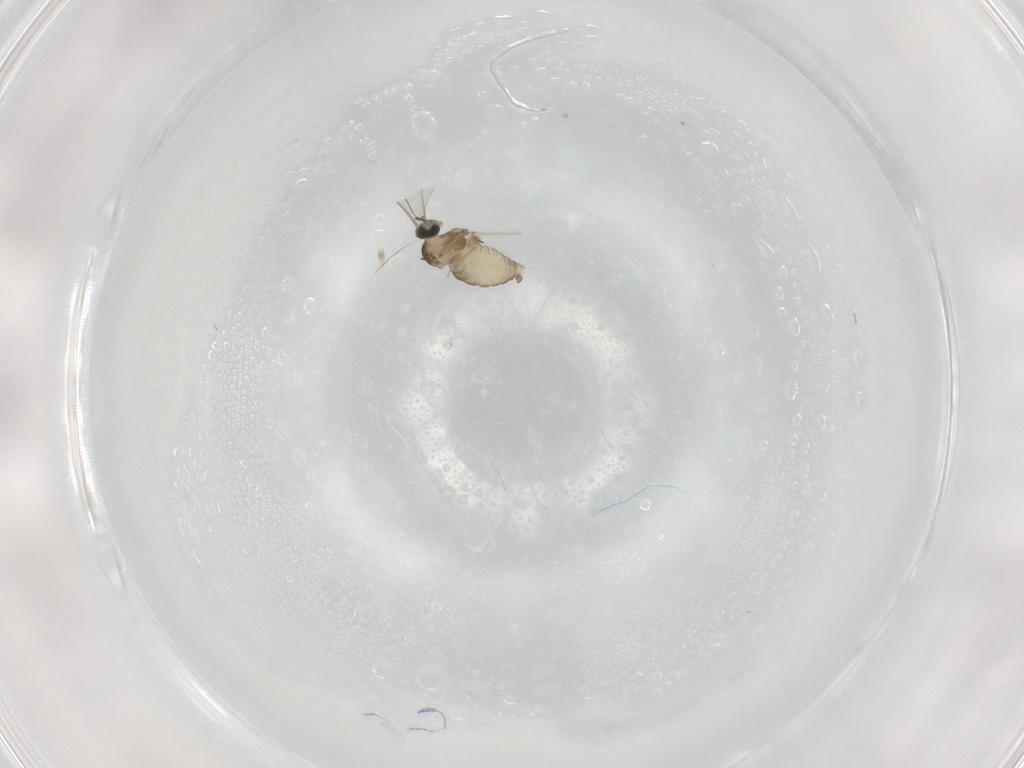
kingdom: Animalia
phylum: Arthropoda
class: Insecta
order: Diptera
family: Cecidomyiidae
